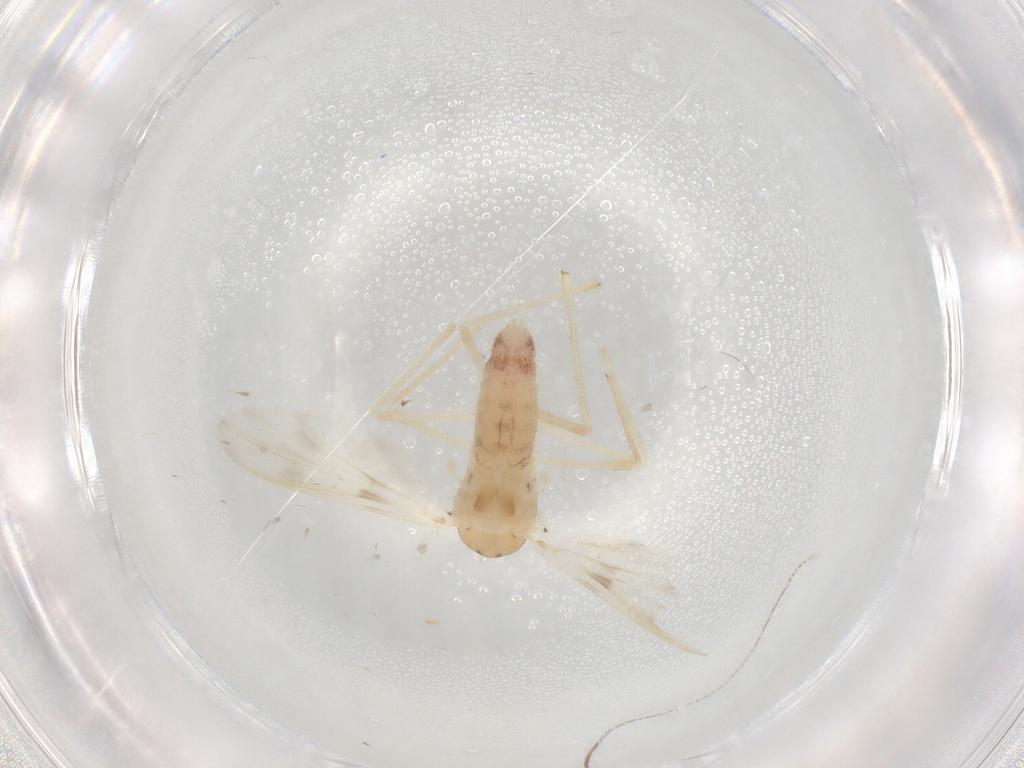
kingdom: Animalia
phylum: Arthropoda
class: Insecta
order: Diptera
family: Chironomidae
